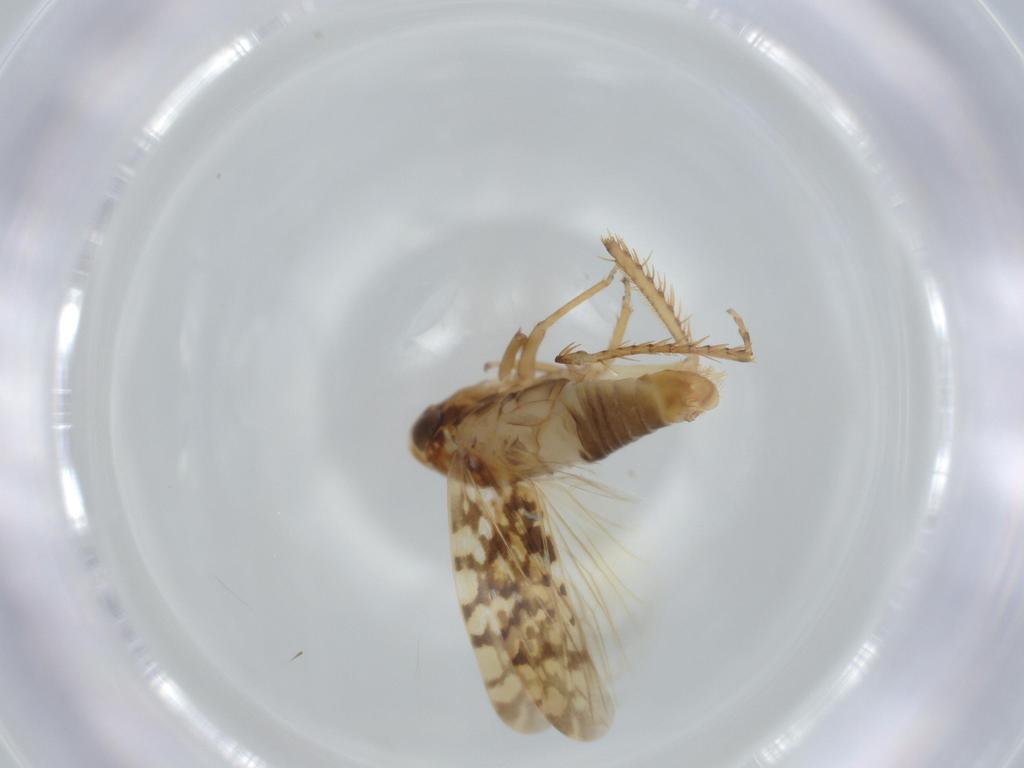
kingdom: Animalia
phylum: Arthropoda
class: Insecta
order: Hemiptera
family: Cicadellidae
